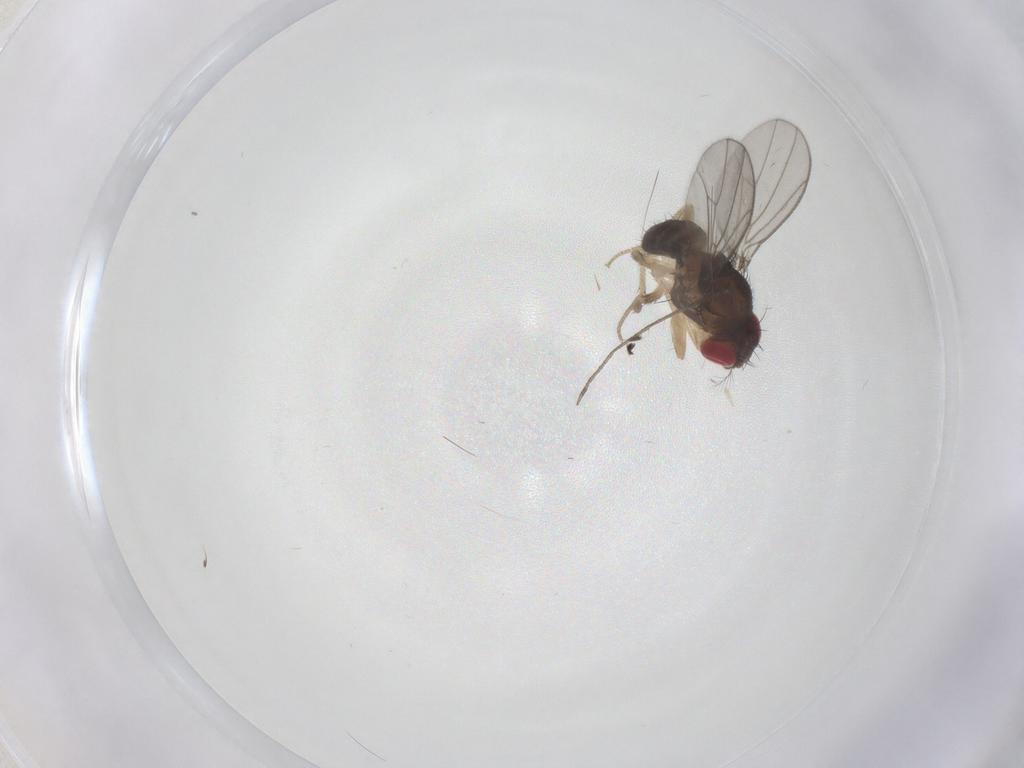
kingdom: Animalia
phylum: Arthropoda
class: Insecta
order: Diptera
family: Drosophilidae
